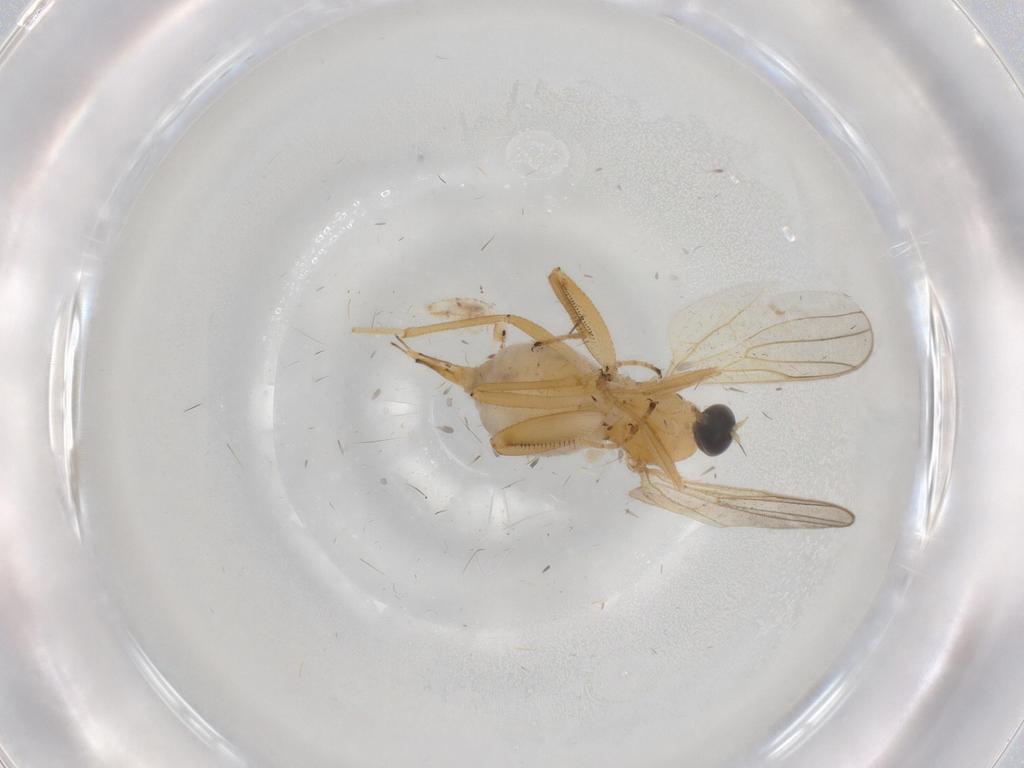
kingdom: Animalia
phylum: Arthropoda
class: Insecta
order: Diptera
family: Hybotidae
